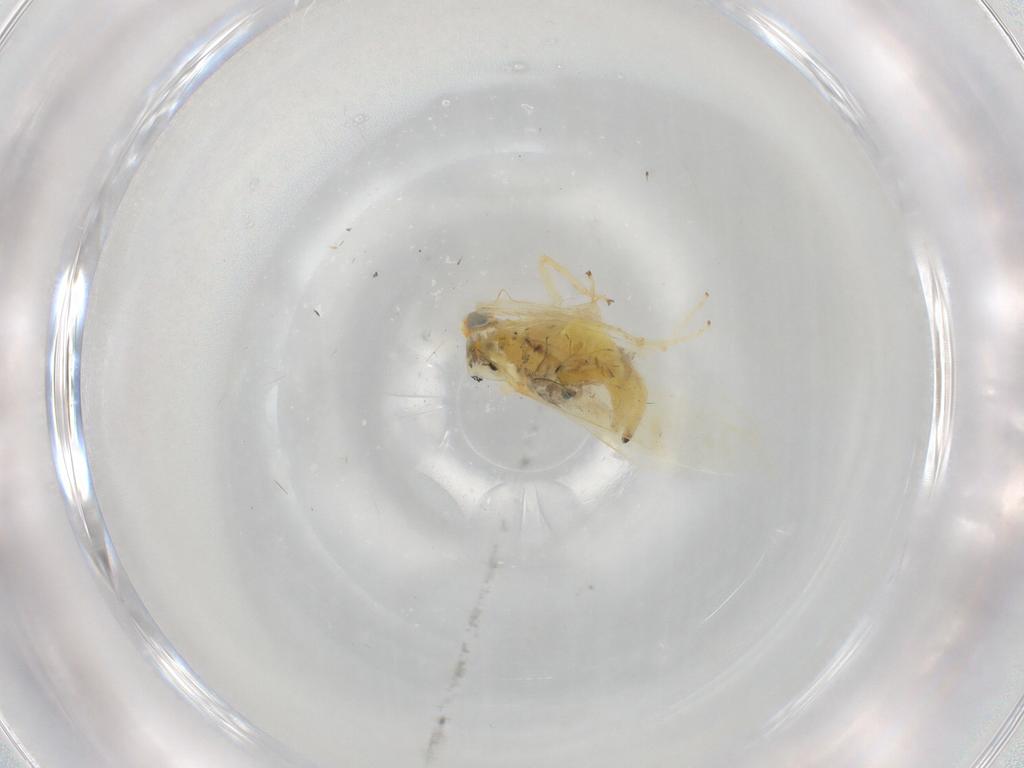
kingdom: Animalia
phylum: Arthropoda
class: Insecta
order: Hemiptera
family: Cicadellidae
